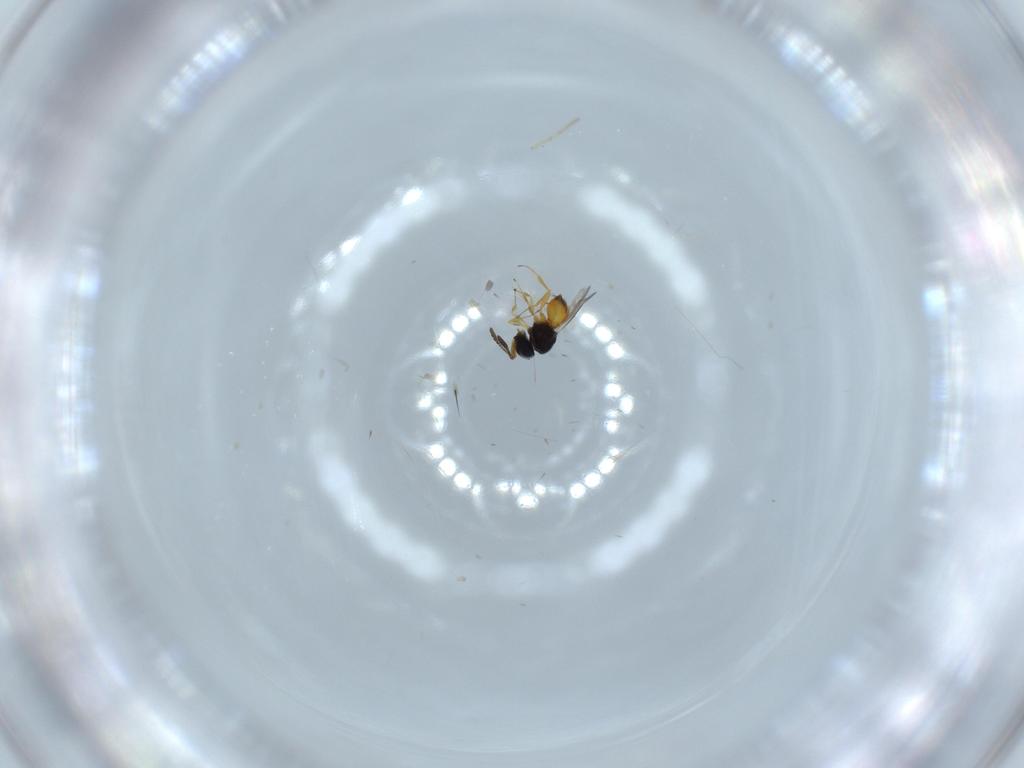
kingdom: Animalia
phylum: Arthropoda
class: Insecta
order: Hymenoptera
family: Scelionidae
